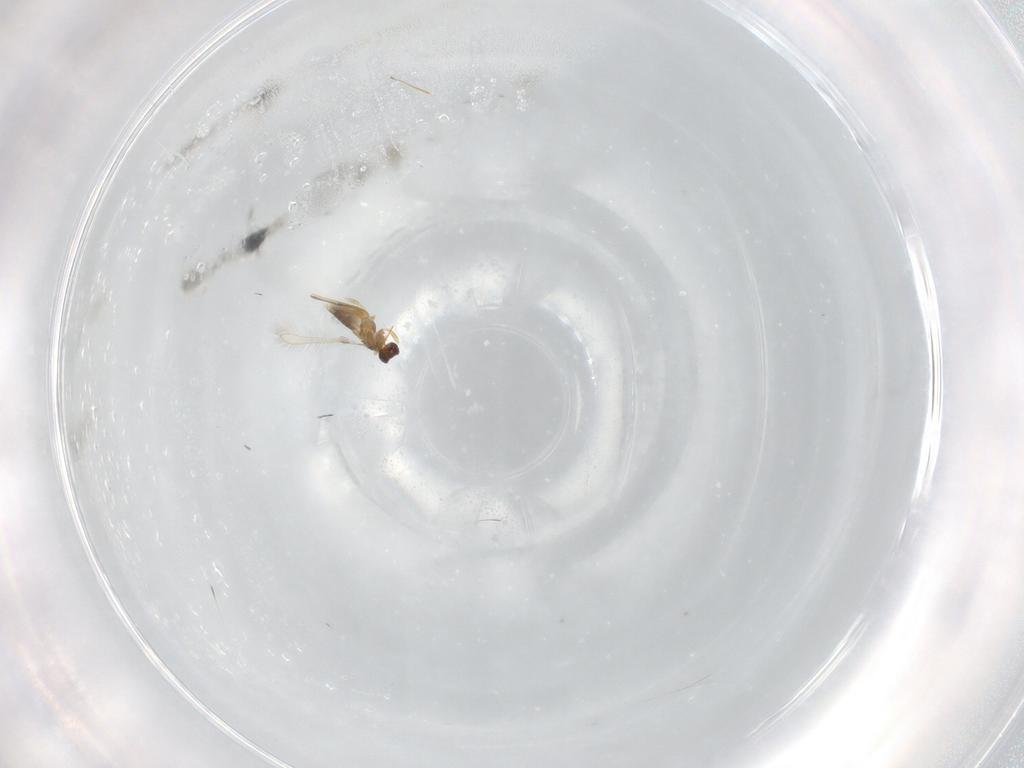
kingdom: Animalia
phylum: Arthropoda
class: Insecta
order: Hymenoptera
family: Mymaridae
